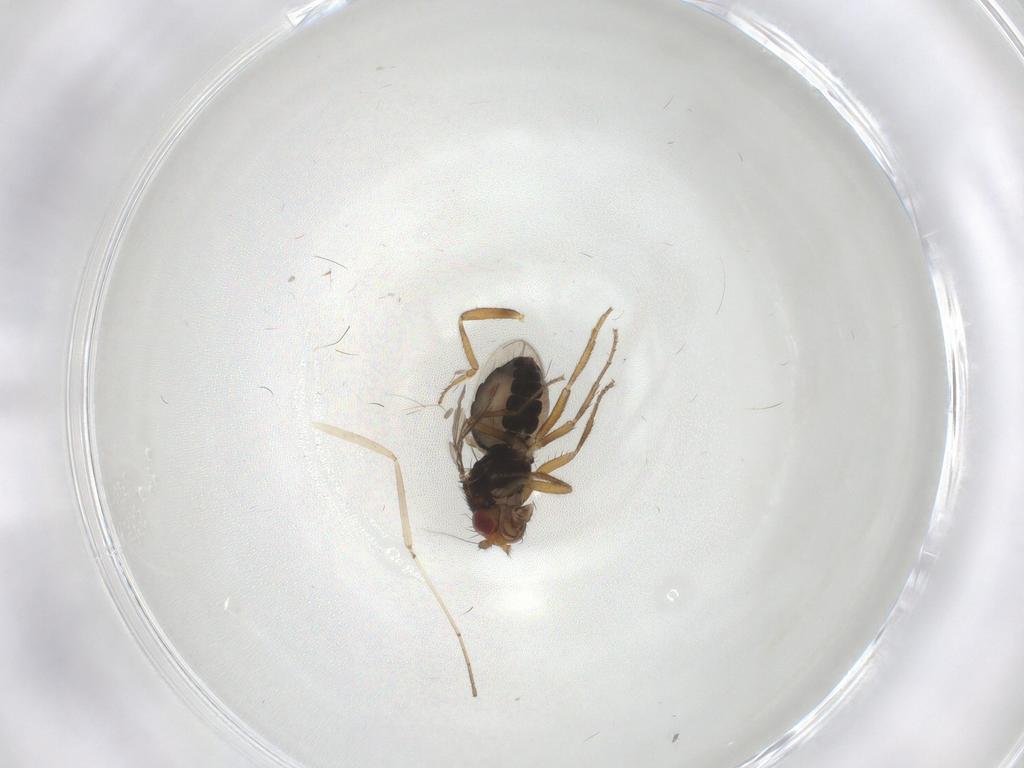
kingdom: Animalia
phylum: Arthropoda
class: Insecta
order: Diptera
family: Sphaeroceridae
